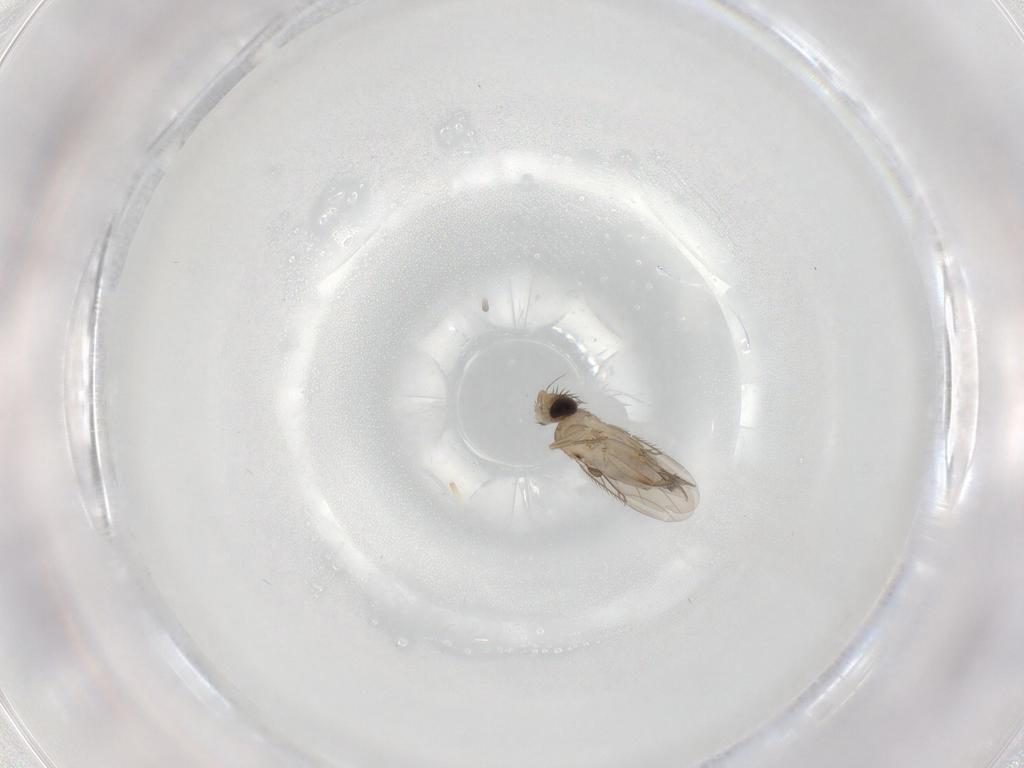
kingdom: Animalia
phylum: Arthropoda
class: Insecta
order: Diptera
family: Phoridae
